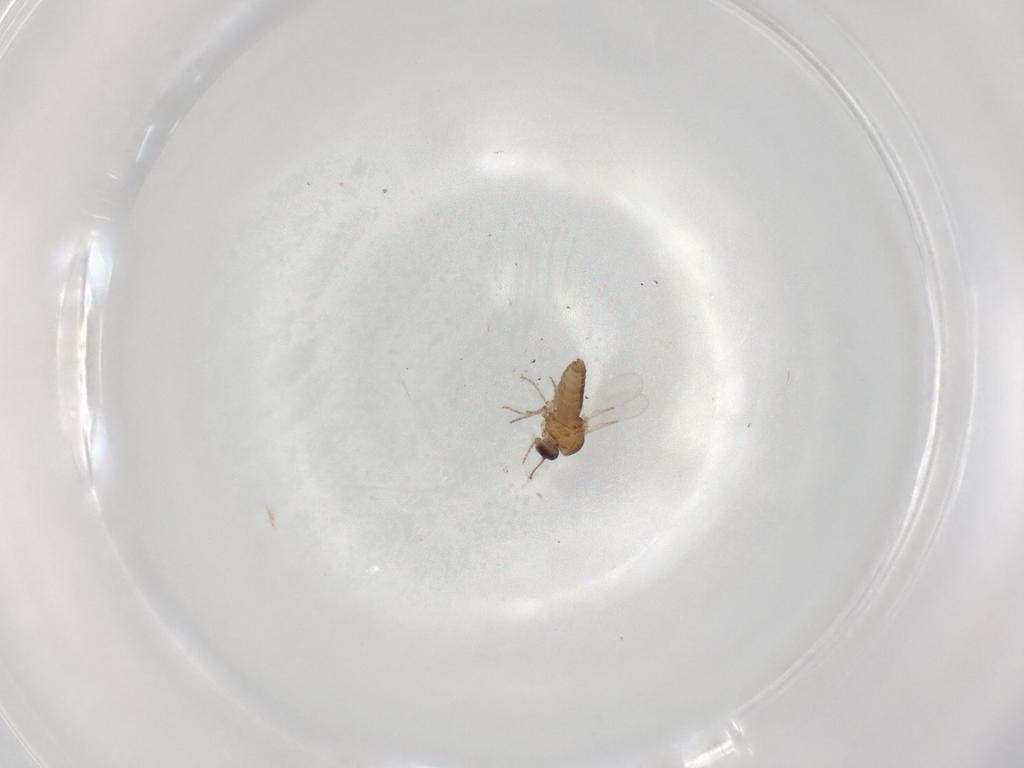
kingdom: Animalia
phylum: Arthropoda
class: Insecta
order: Diptera
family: Ceratopogonidae
